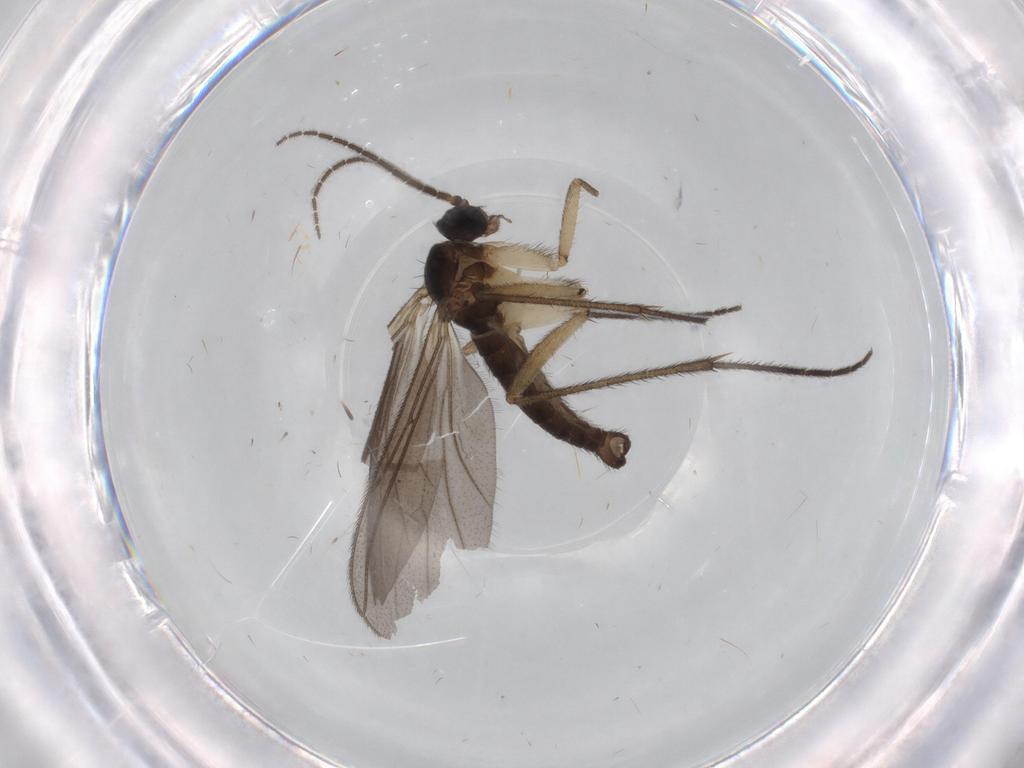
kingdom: Animalia
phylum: Arthropoda
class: Insecta
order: Diptera
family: Sciaridae
